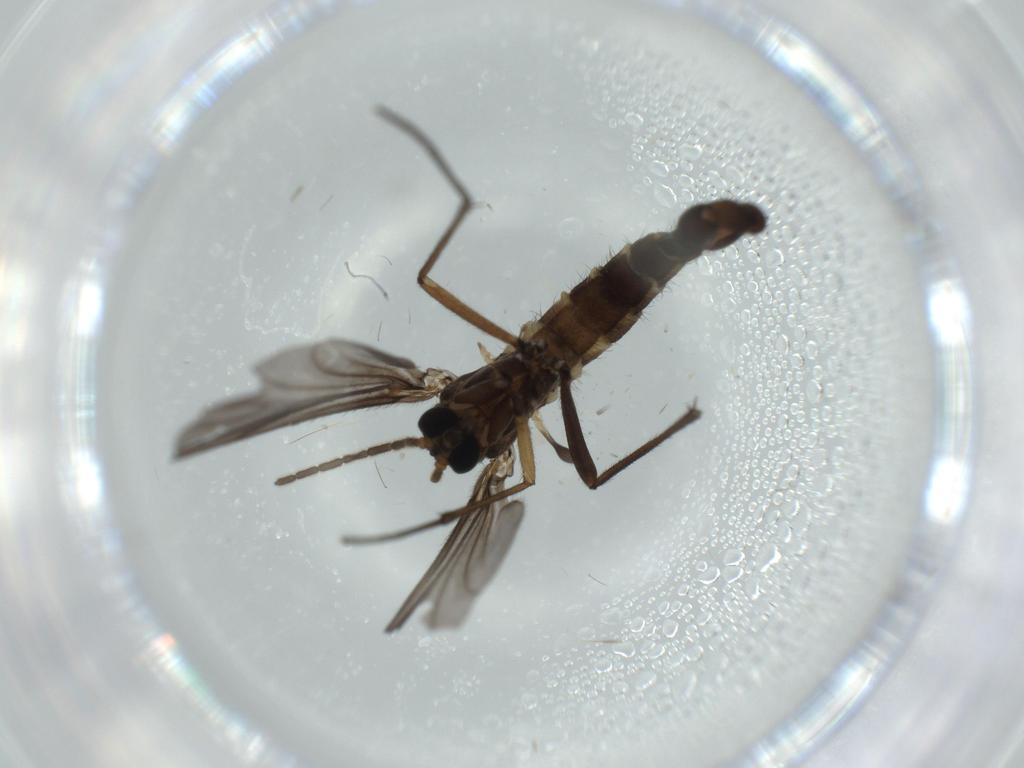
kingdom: Animalia
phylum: Arthropoda
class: Insecta
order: Diptera
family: Sciaridae
